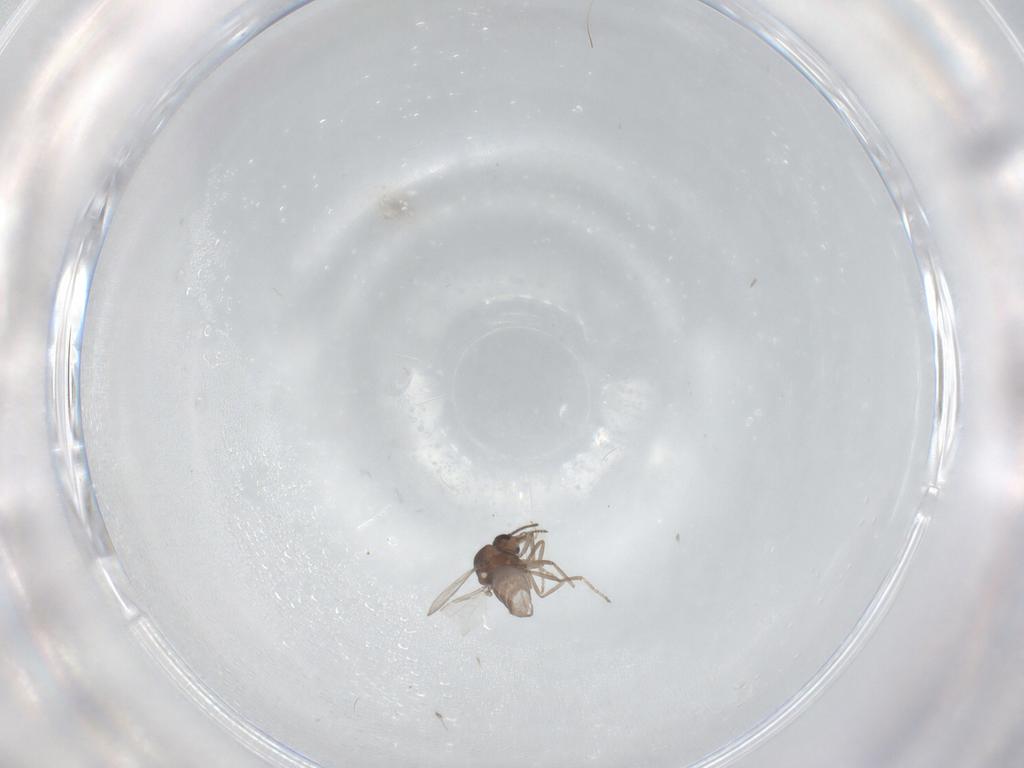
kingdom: Animalia
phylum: Arthropoda
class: Insecta
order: Diptera
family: Ceratopogonidae
